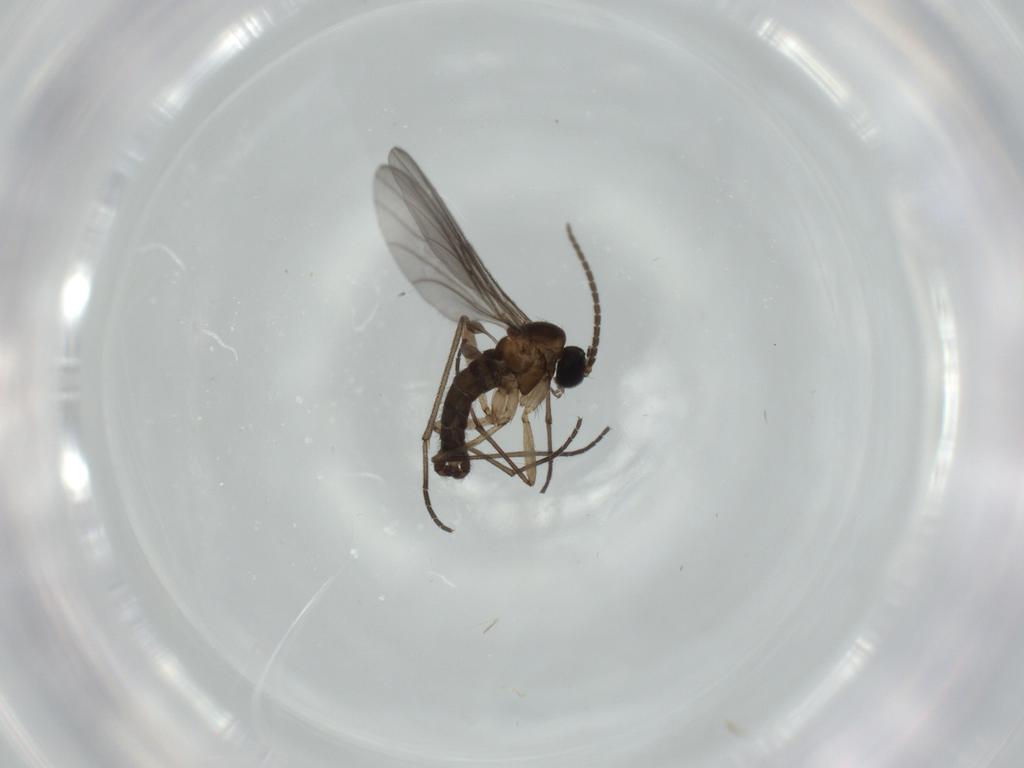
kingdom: Animalia
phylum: Arthropoda
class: Insecta
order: Diptera
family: Sciaridae
